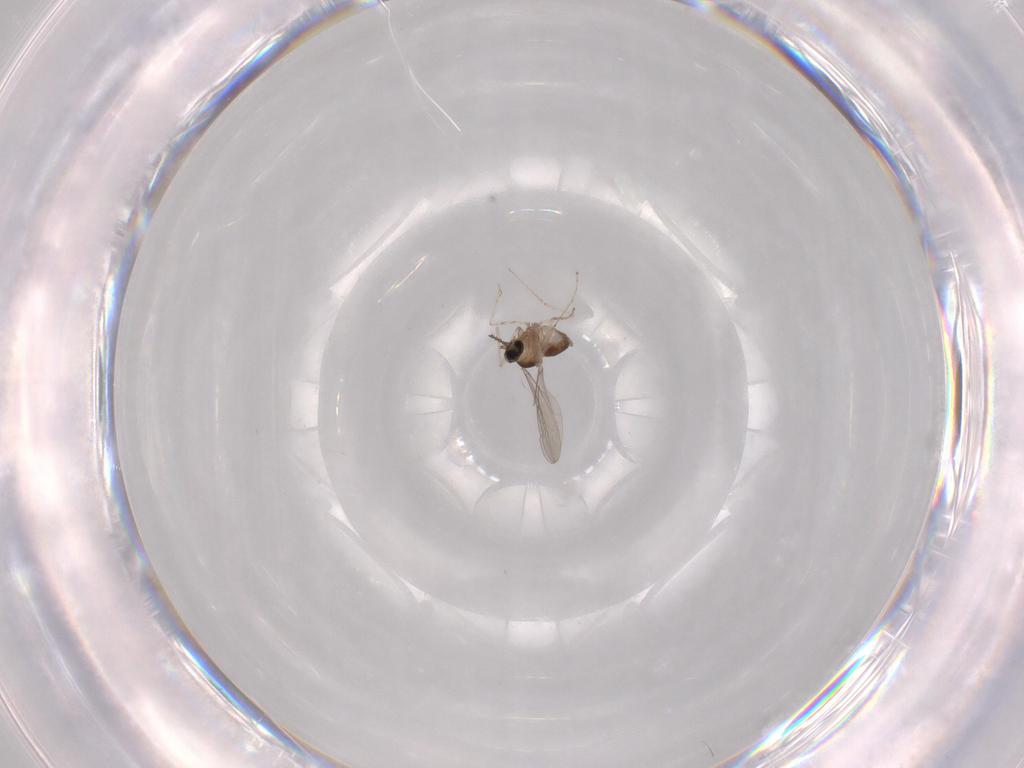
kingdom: Animalia
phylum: Arthropoda
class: Insecta
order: Diptera
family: Cecidomyiidae
